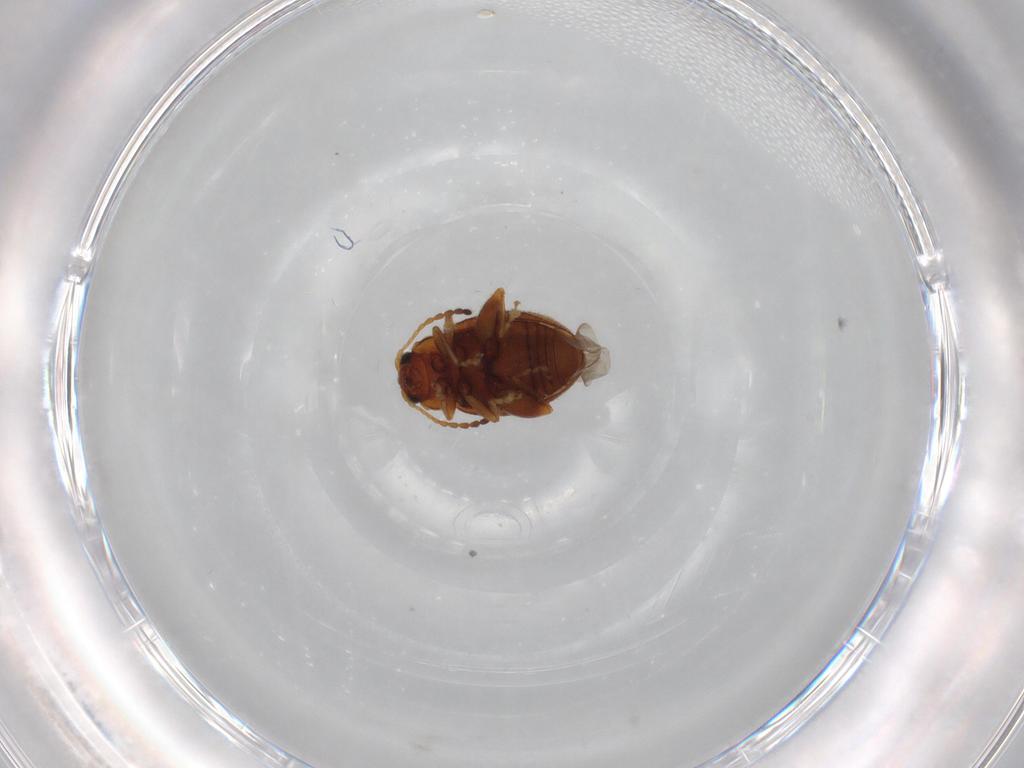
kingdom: Animalia
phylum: Arthropoda
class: Insecta
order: Coleoptera
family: Chrysomelidae
